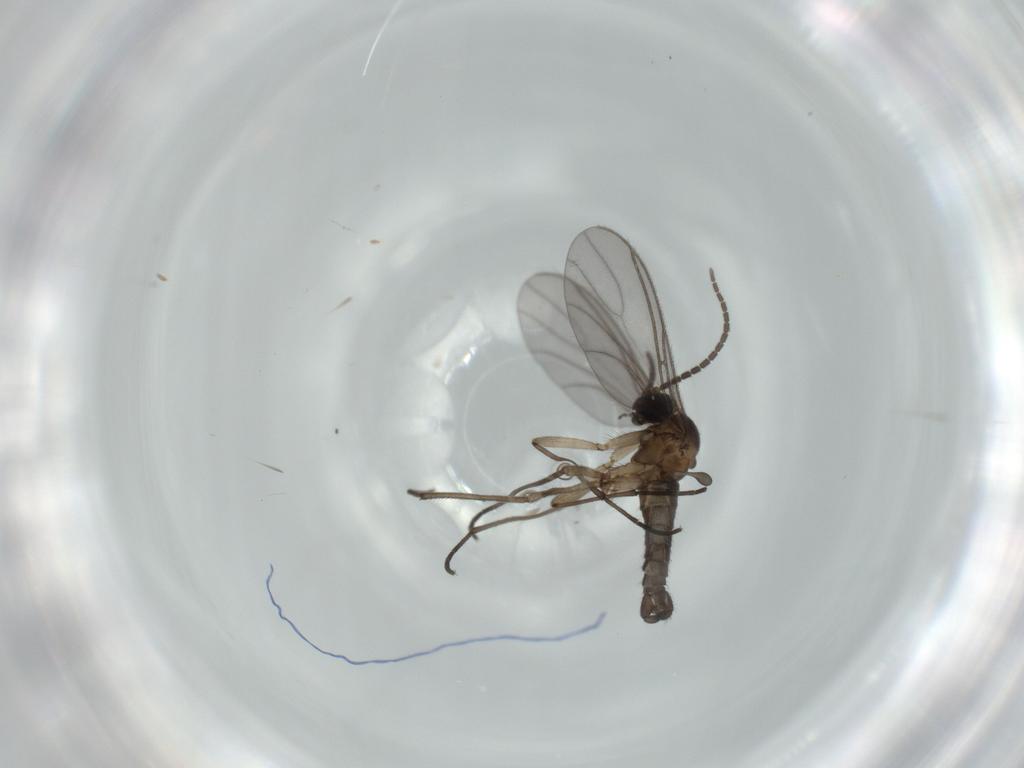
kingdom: Animalia
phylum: Arthropoda
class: Insecta
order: Diptera
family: Sciaridae
